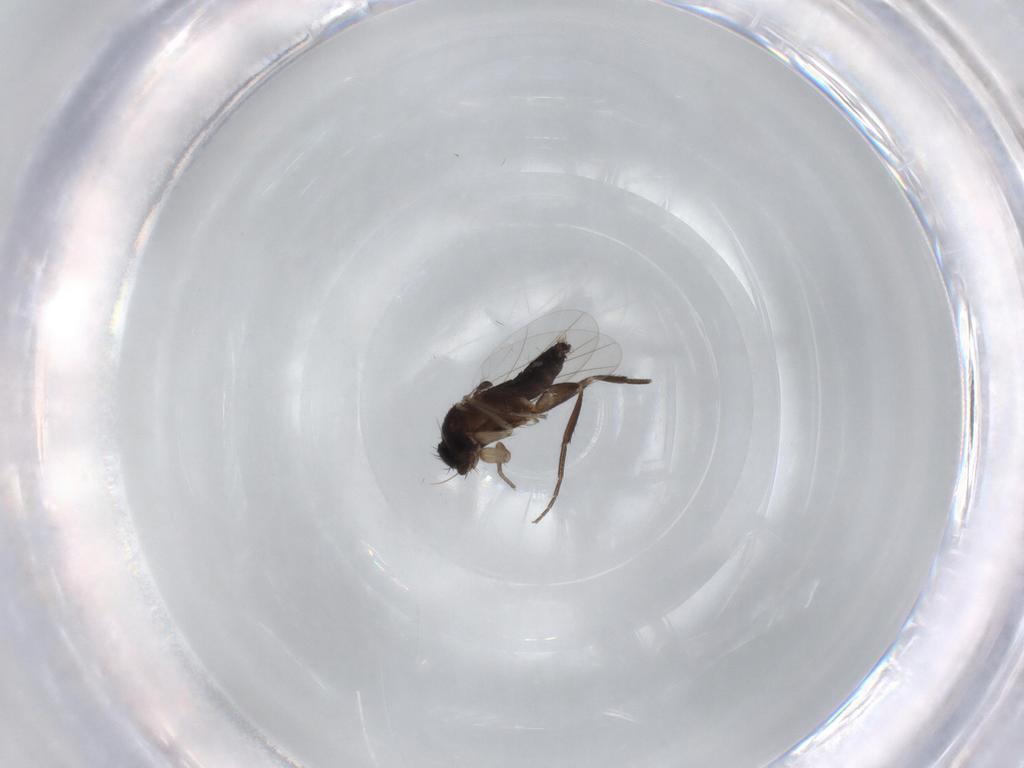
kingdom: Animalia
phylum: Arthropoda
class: Insecta
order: Diptera
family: Phoridae
